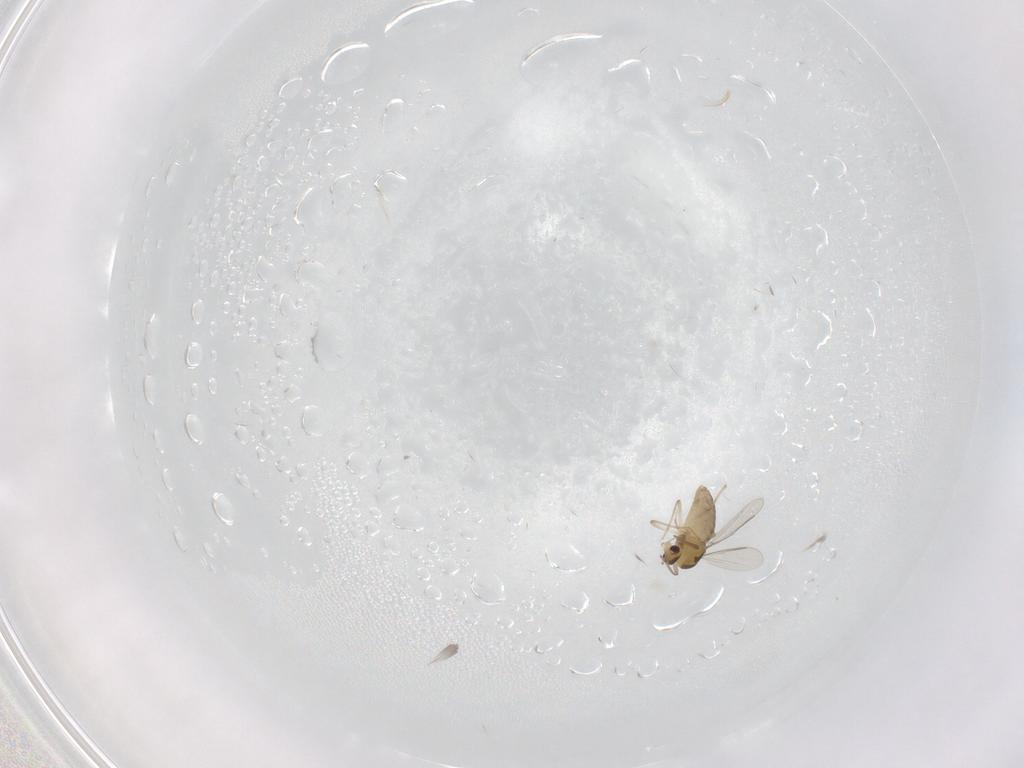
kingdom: Animalia
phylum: Arthropoda
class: Insecta
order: Diptera
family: Chironomidae
